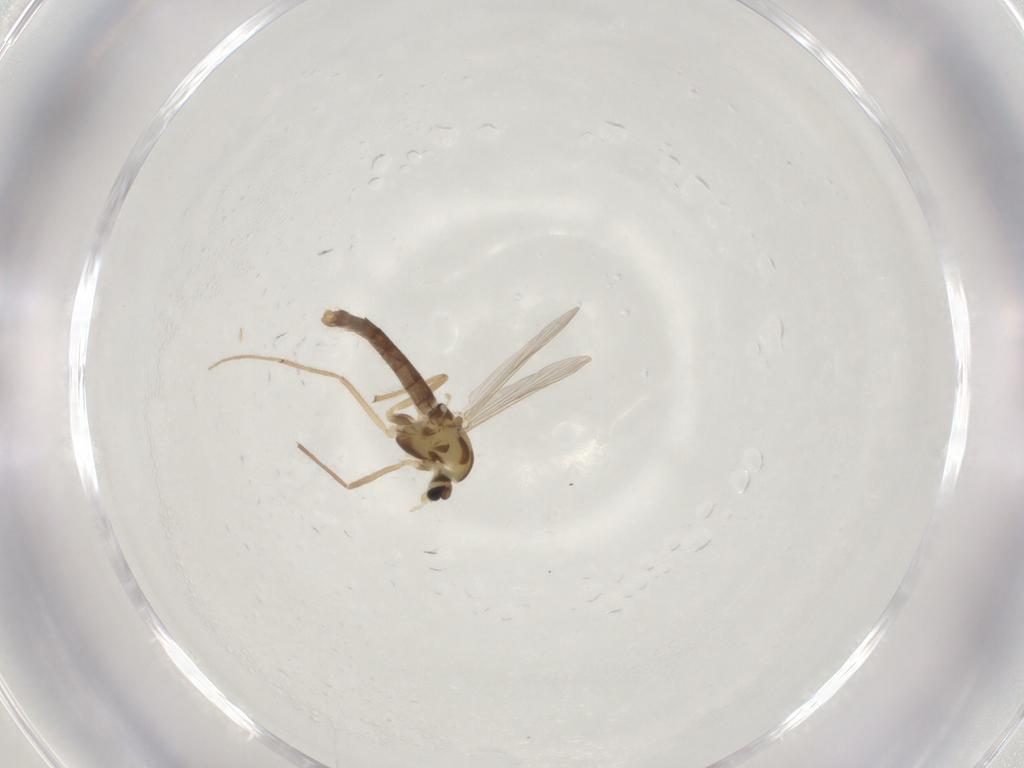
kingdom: Animalia
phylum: Arthropoda
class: Insecta
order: Diptera
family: Chironomidae
